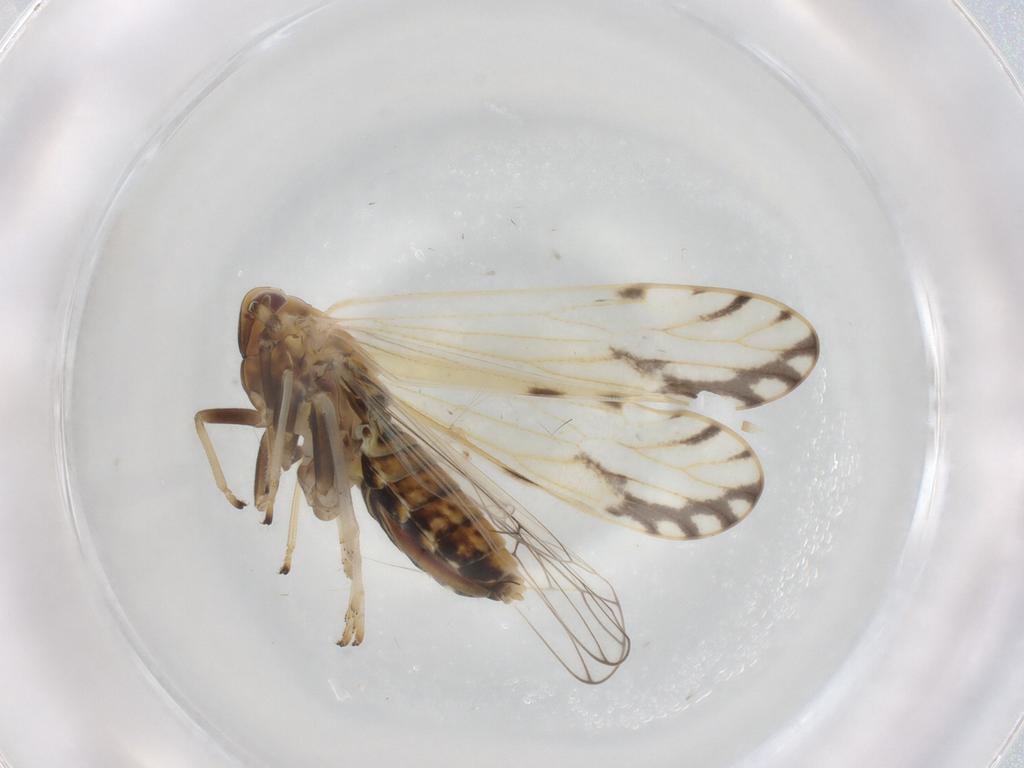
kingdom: Animalia
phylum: Arthropoda
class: Insecta
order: Hemiptera
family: Delphacidae
